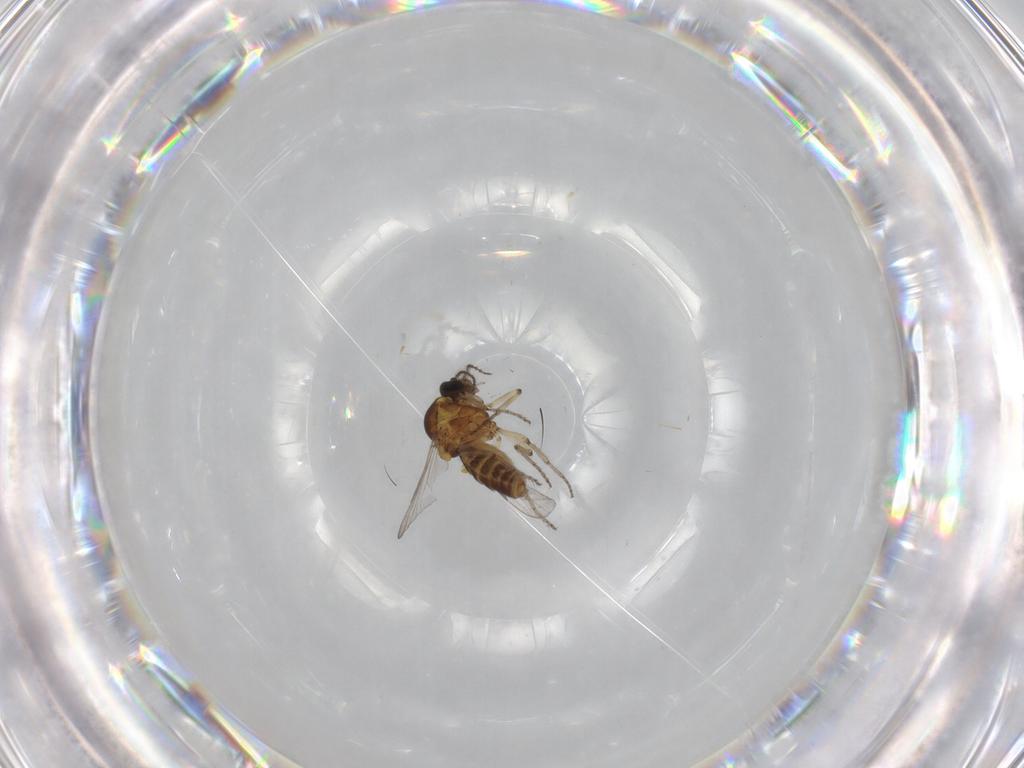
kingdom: Animalia
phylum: Arthropoda
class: Insecta
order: Diptera
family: Ceratopogonidae
